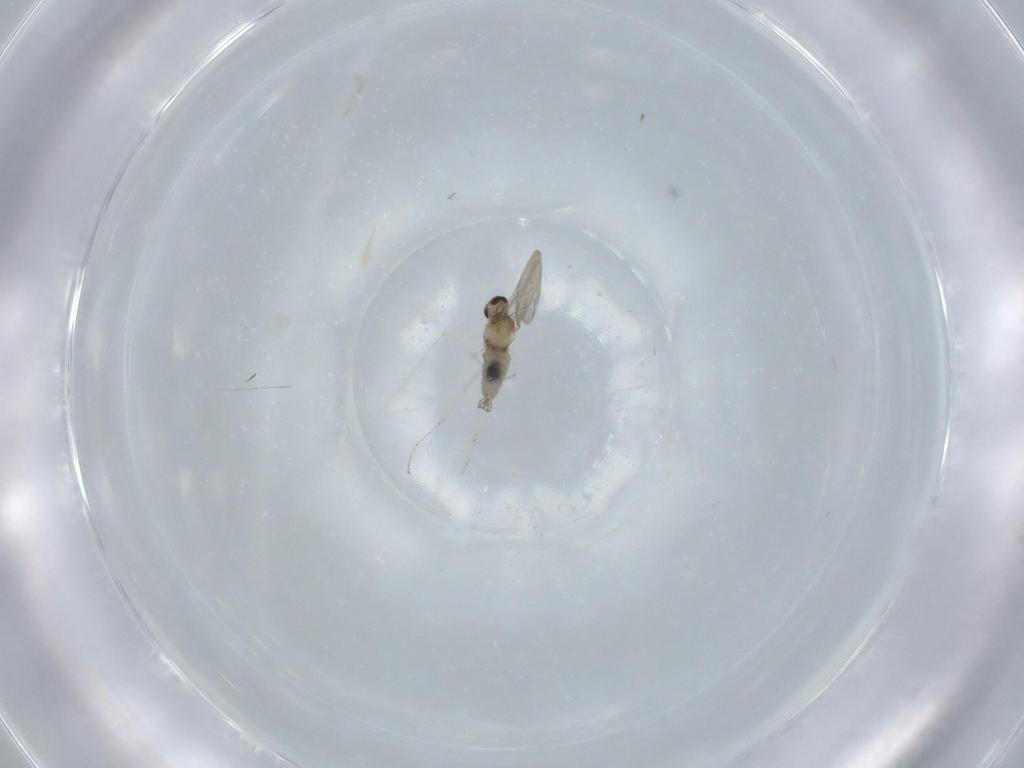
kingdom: Animalia
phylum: Arthropoda
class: Insecta
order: Diptera
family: Cecidomyiidae
